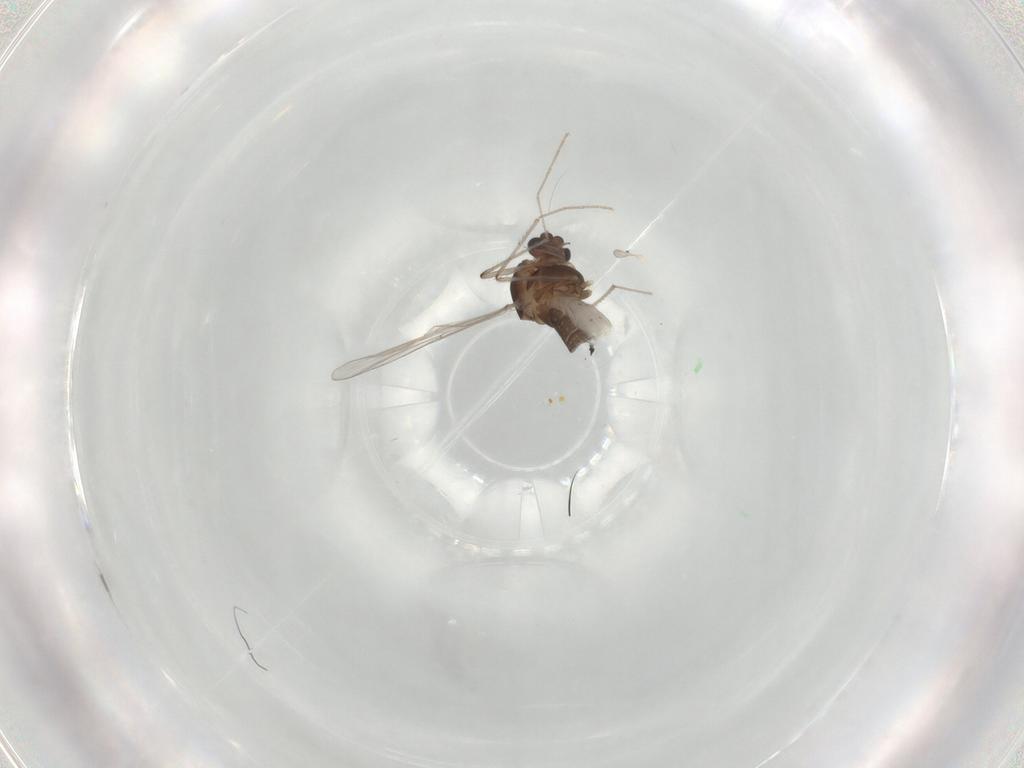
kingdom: Animalia
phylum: Arthropoda
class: Insecta
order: Diptera
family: Chironomidae
